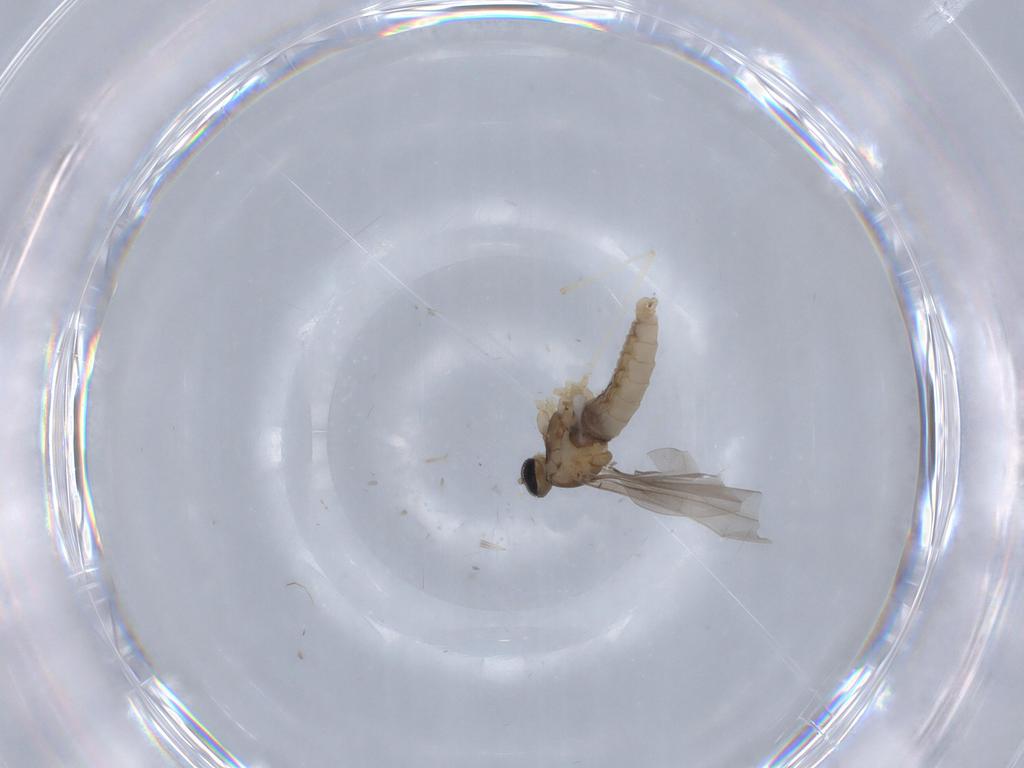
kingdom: Animalia
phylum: Arthropoda
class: Insecta
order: Diptera
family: Cecidomyiidae
